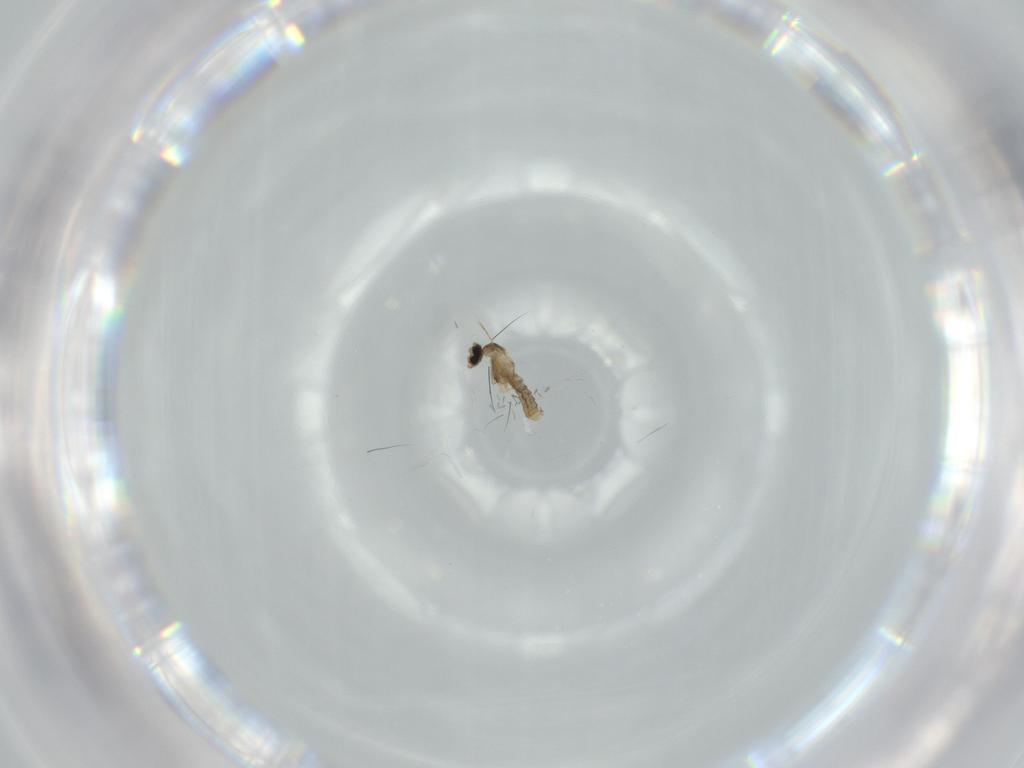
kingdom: Animalia
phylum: Arthropoda
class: Insecta
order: Diptera
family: Cecidomyiidae
